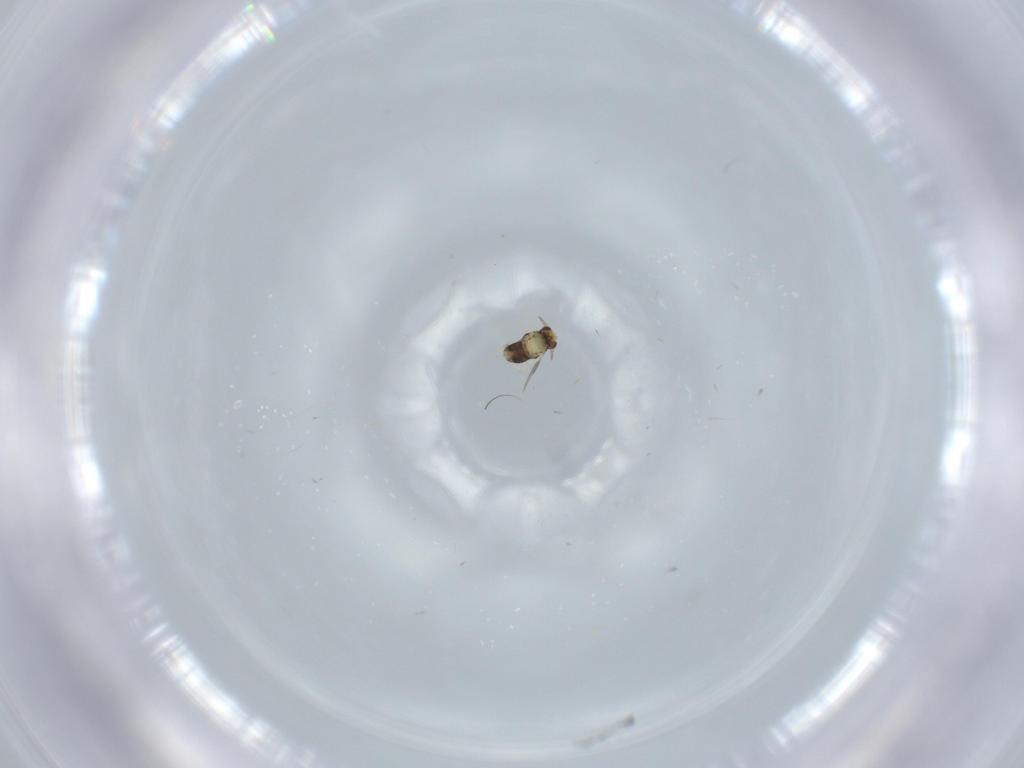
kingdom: Animalia
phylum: Arthropoda
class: Insecta
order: Hymenoptera
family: Aphelinidae
